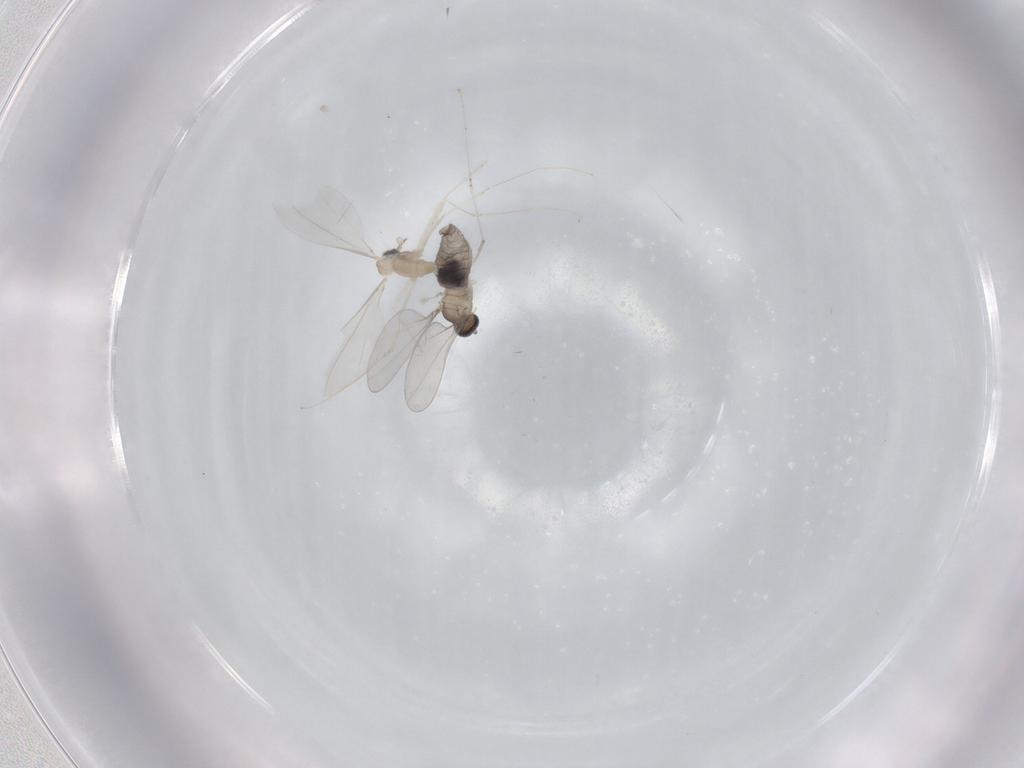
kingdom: Animalia
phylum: Arthropoda
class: Insecta
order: Diptera
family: Cecidomyiidae
